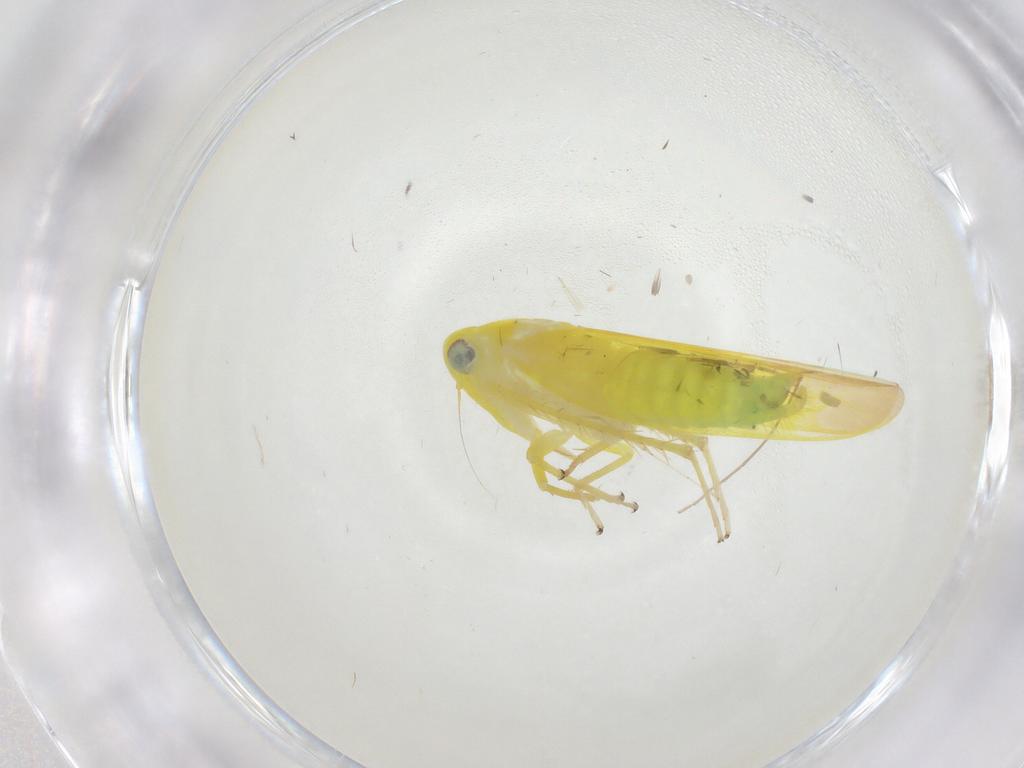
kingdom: Animalia
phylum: Arthropoda
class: Insecta
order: Hemiptera
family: Cicadellidae
